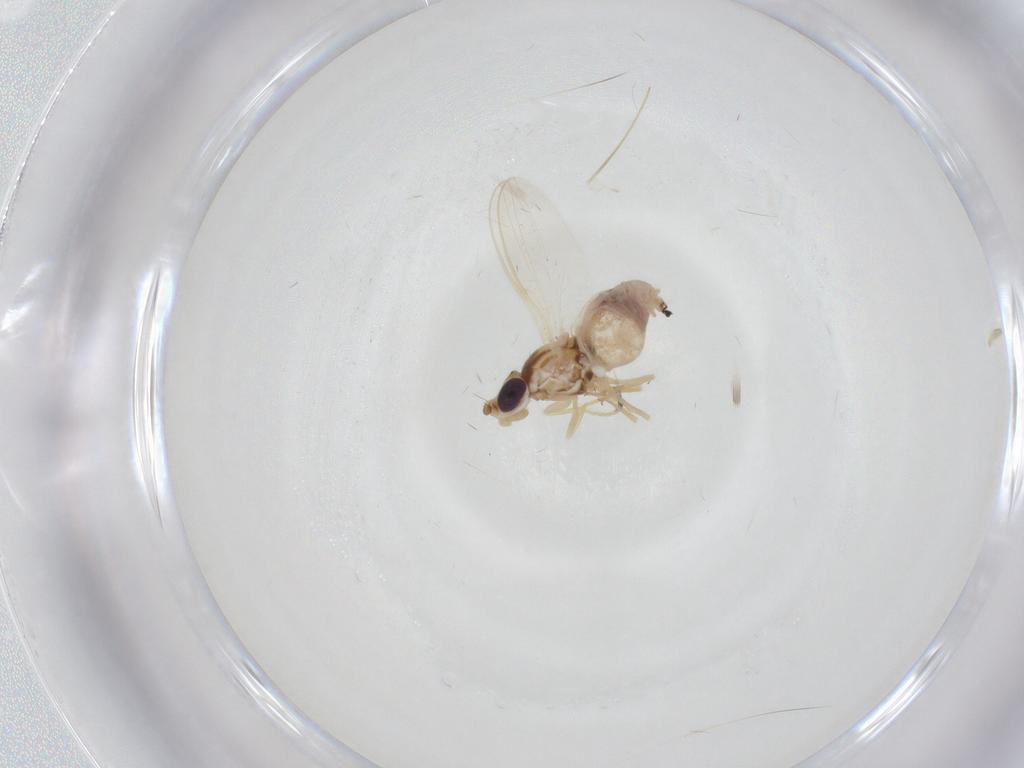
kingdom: Animalia
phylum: Arthropoda
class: Insecta
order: Diptera
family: Chloropidae
